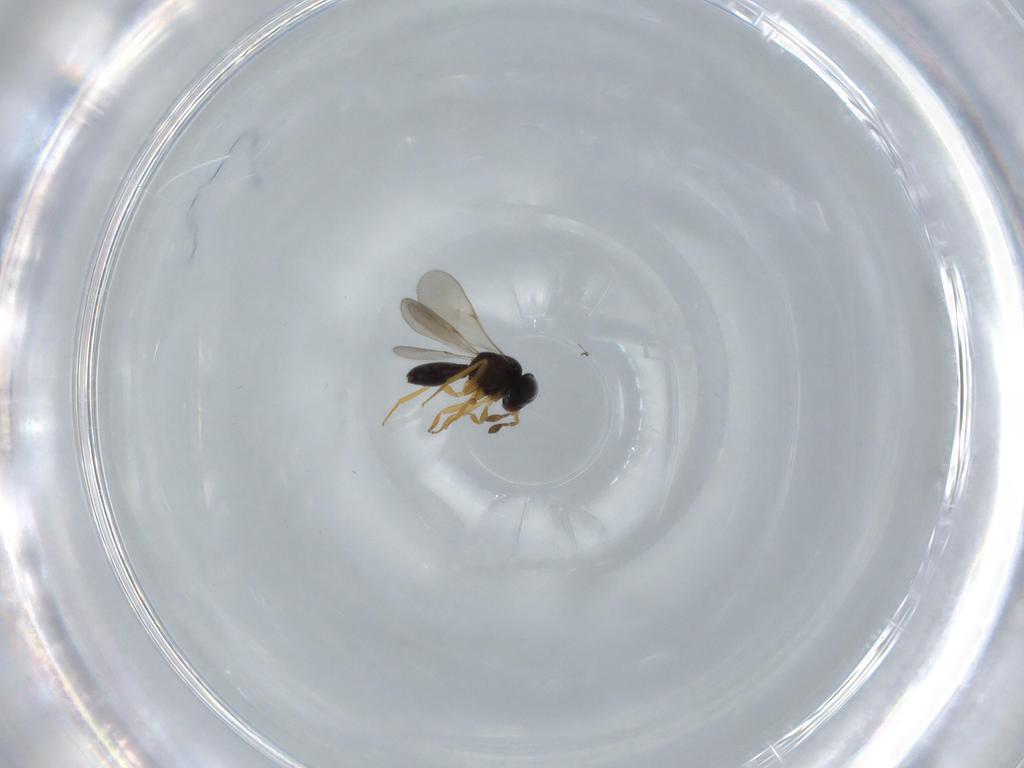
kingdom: Animalia
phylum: Arthropoda
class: Insecta
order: Hymenoptera
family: Scelionidae
